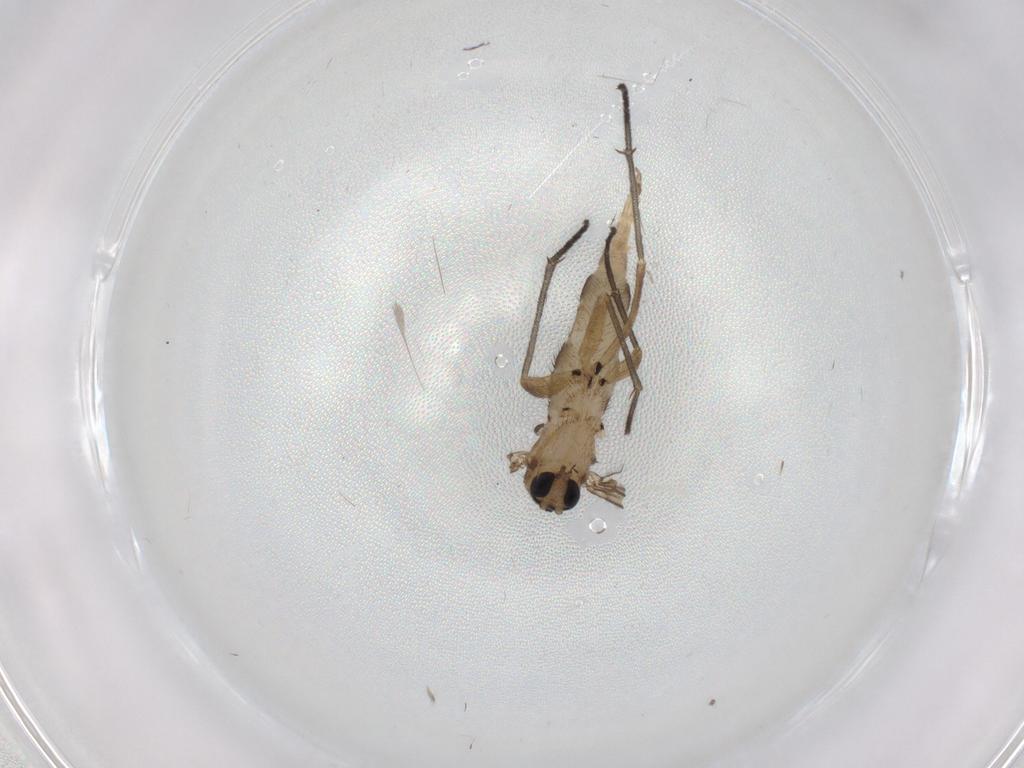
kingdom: Animalia
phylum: Arthropoda
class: Insecta
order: Diptera
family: Sciaridae
